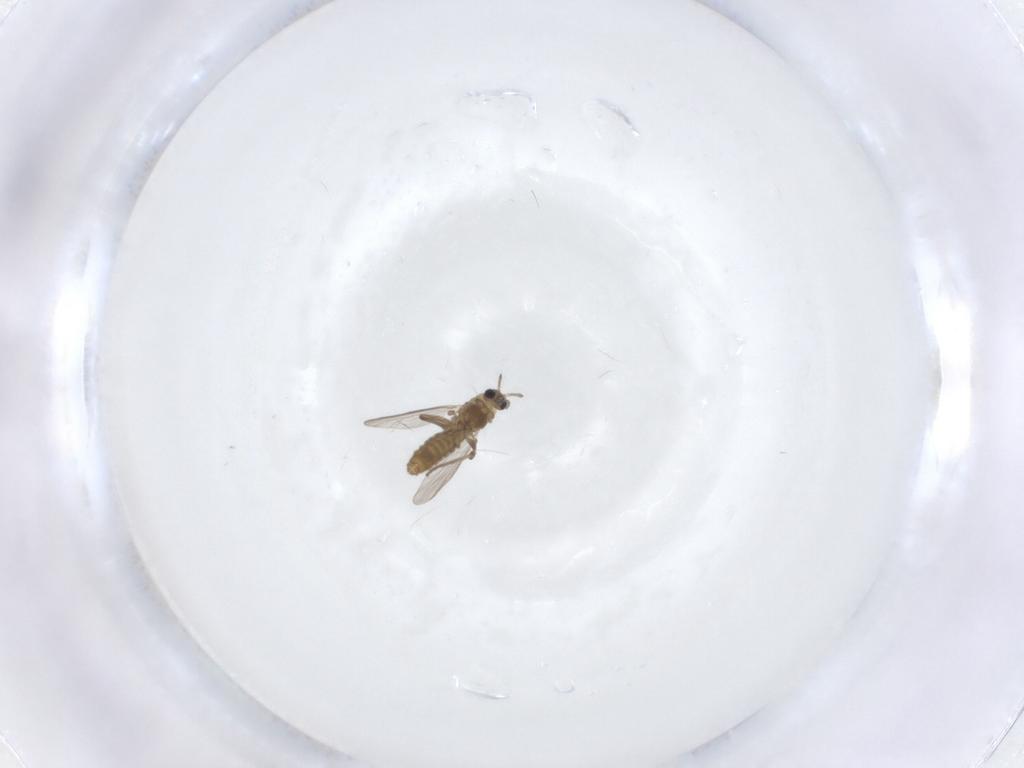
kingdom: Animalia
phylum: Arthropoda
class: Insecta
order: Diptera
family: Chironomidae
